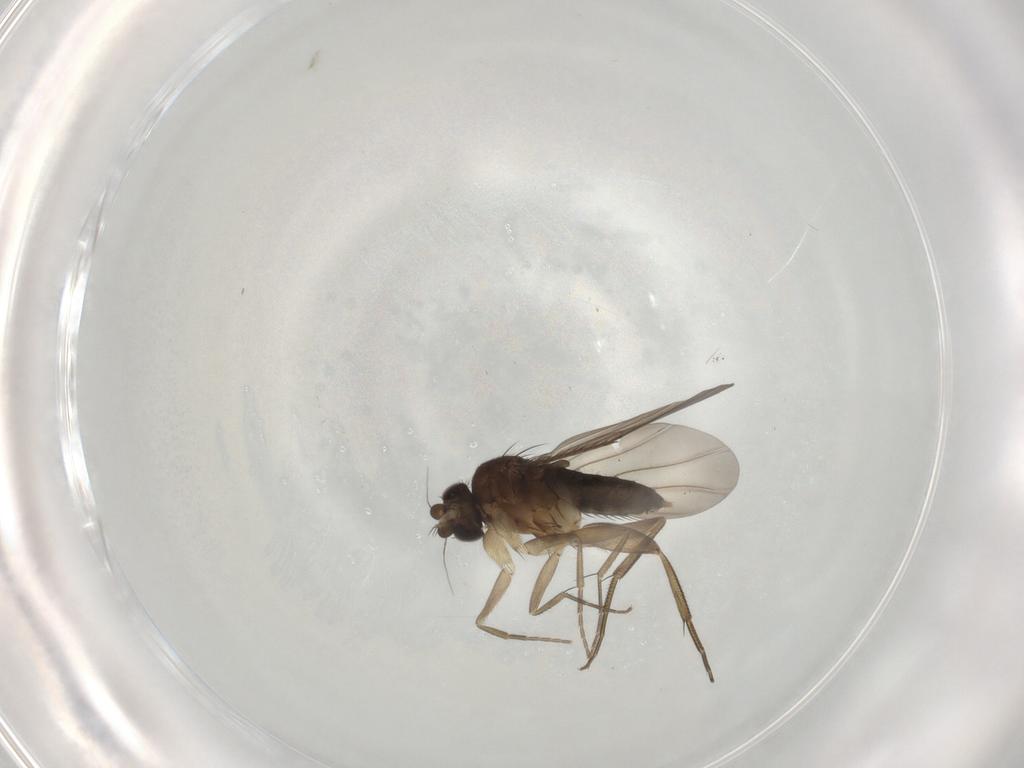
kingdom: Animalia
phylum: Arthropoda
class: Insecta
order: Diptera
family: Phoridae
